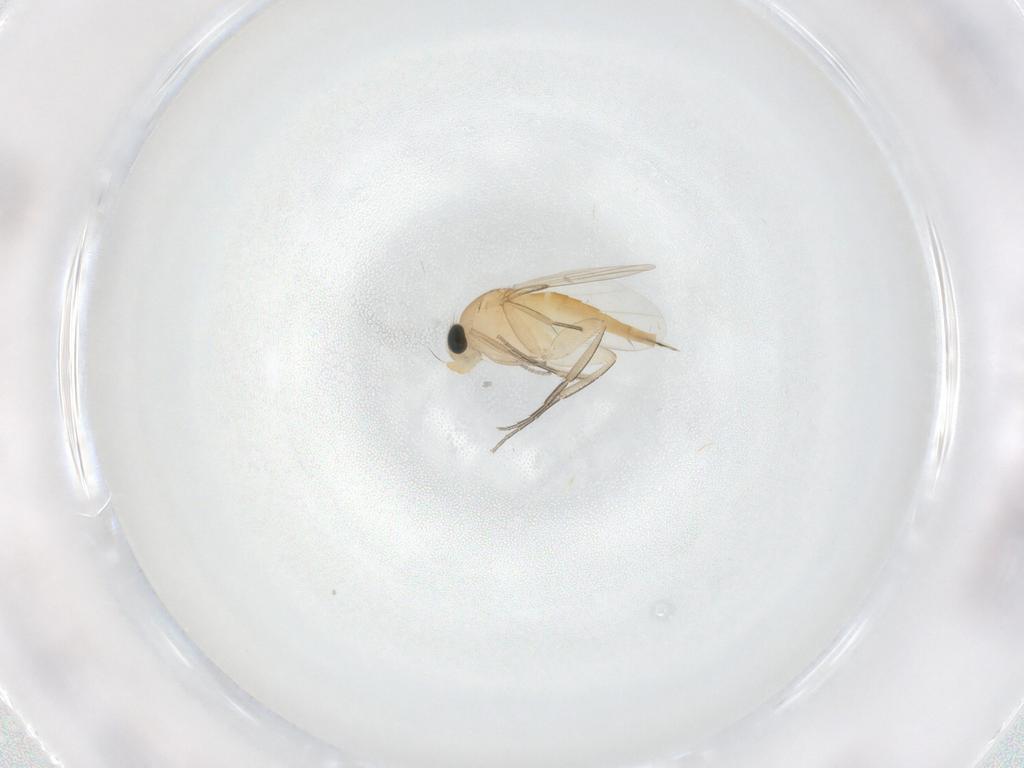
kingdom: Animalia
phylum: Arthropoda
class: Insecta
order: Diptera
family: Phoridae
